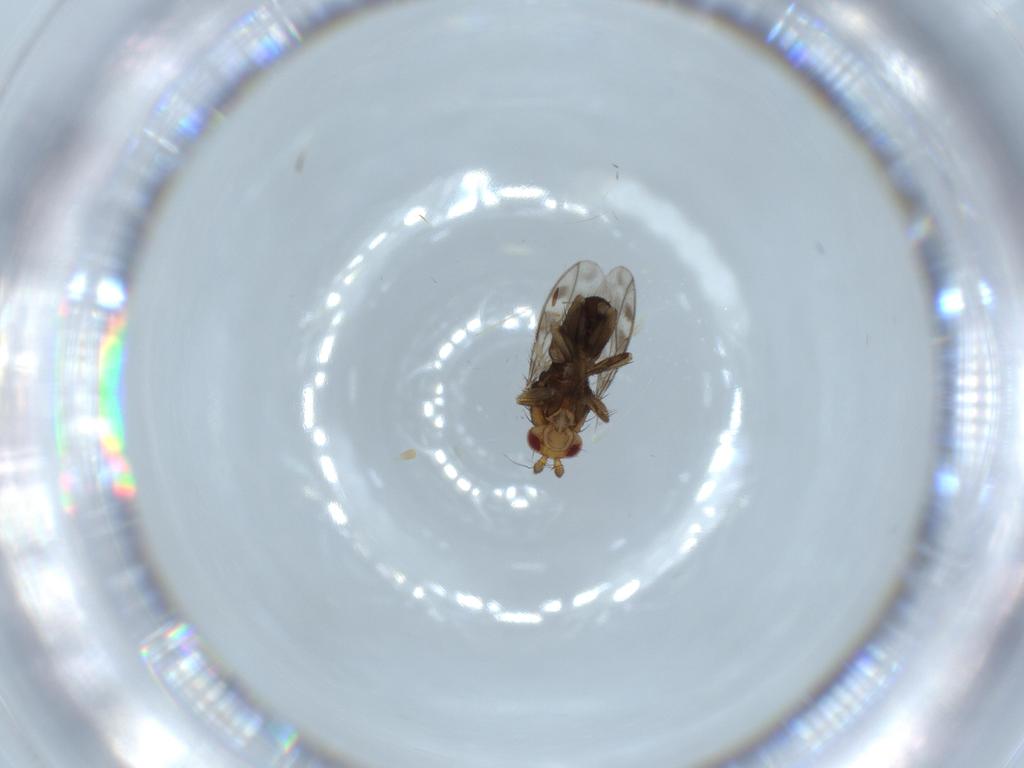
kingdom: Animalia
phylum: Arthropoda
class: Insecta
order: Diptera
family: Sphaeroceridae
